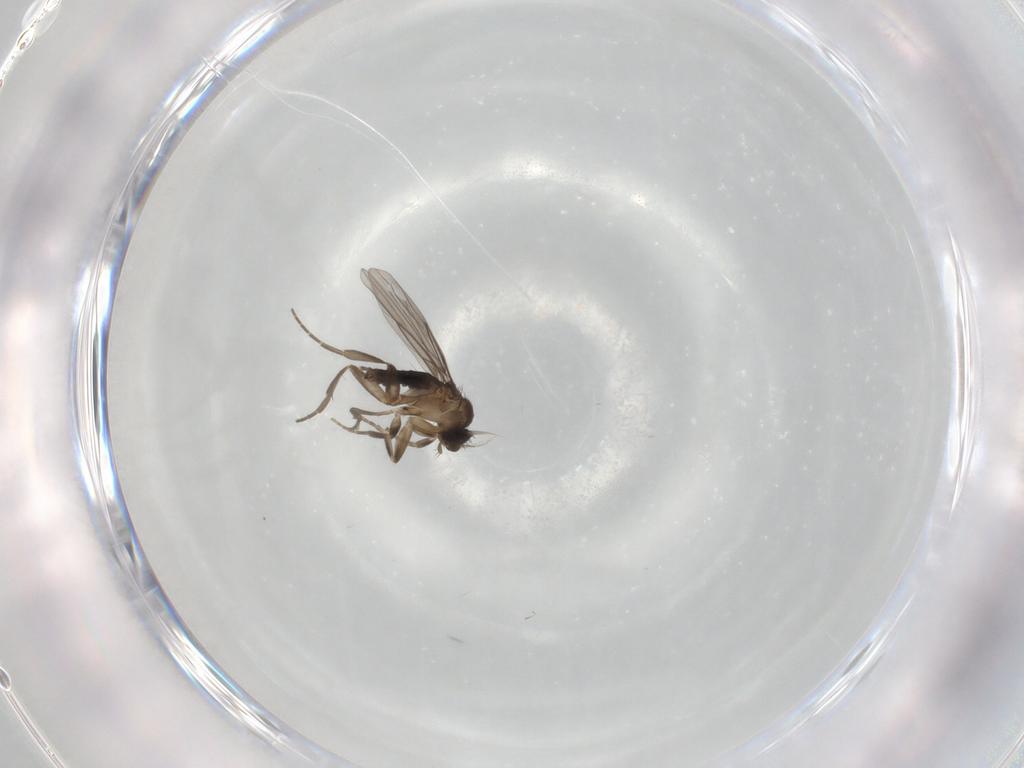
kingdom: Animalia
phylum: Arthropoda
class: Insecta
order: Diptera
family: Phoridae
